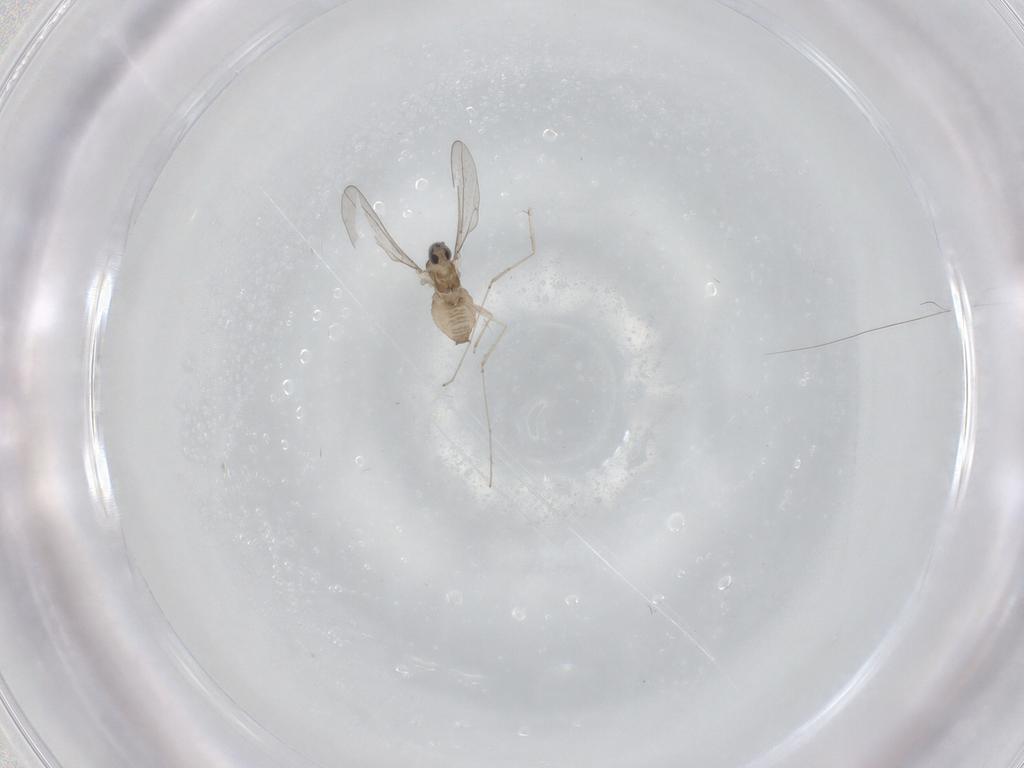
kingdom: Animalia
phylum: Arthropoda
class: Insecta
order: Diptera
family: Cecidomyiidae
